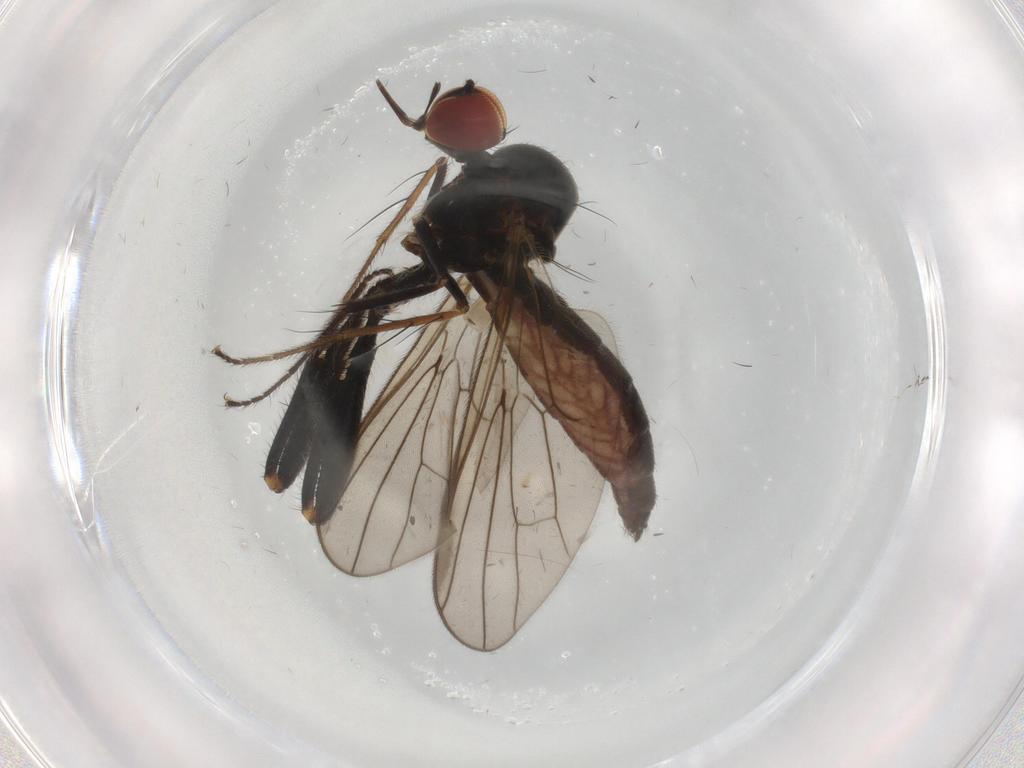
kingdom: Animalia
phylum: Arthropoda
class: Insecta
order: Diptera
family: Hybotidae
